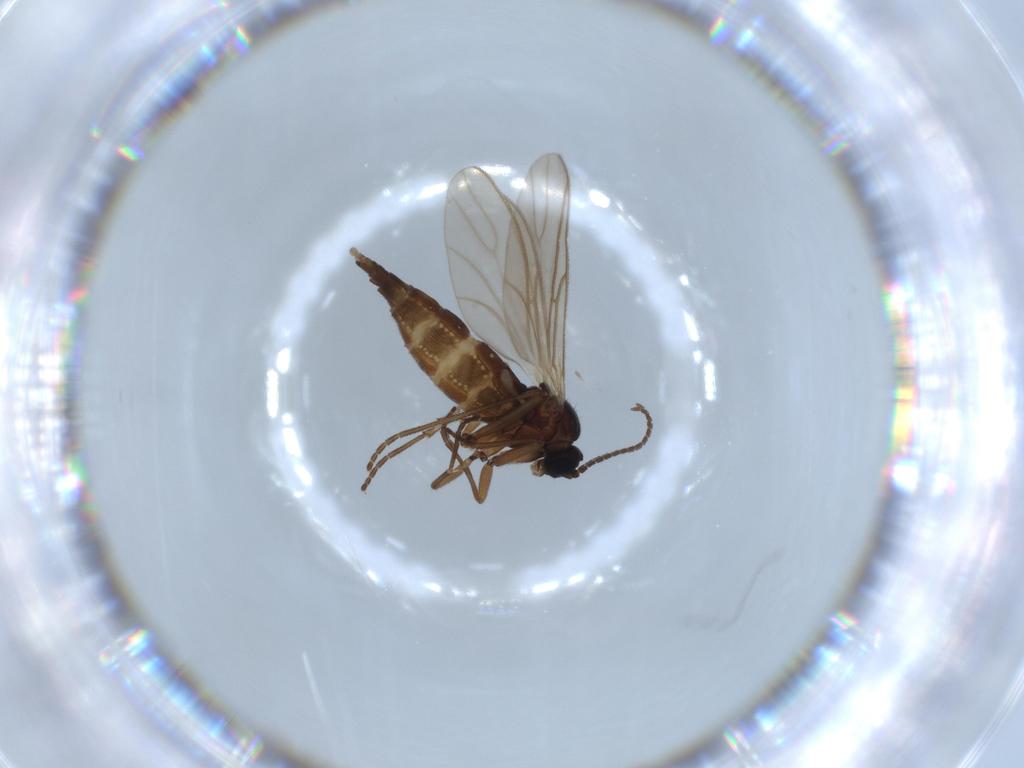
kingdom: Animalia
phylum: Arthropoda
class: Insecta
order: Diptera
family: Sciaridae
